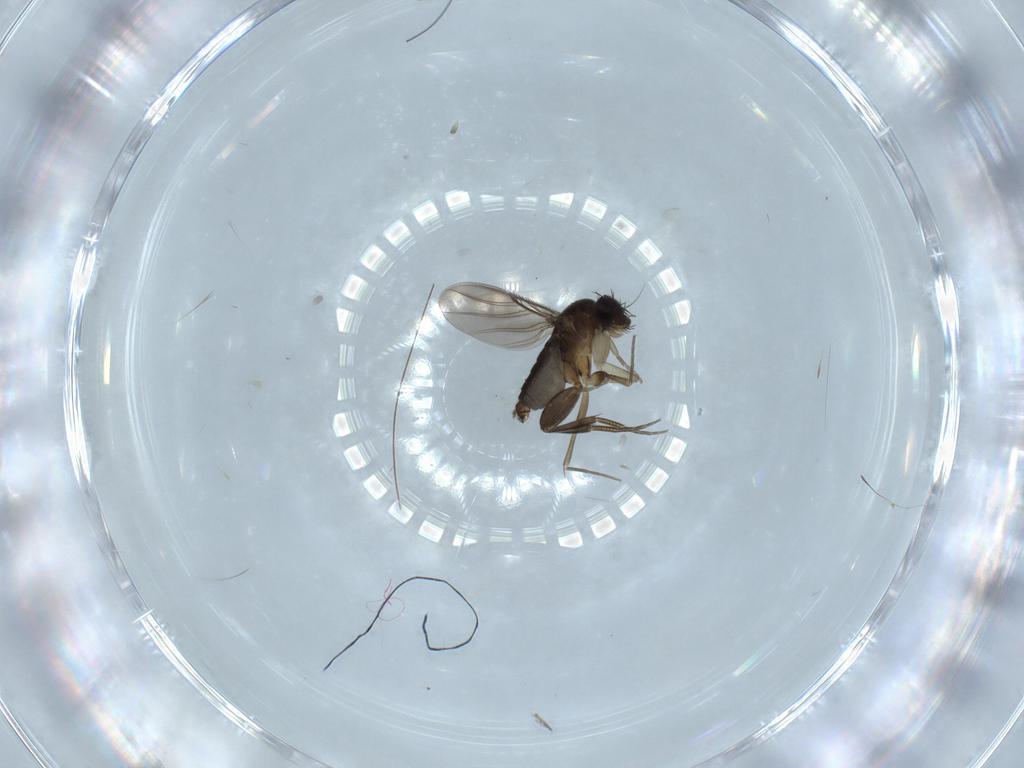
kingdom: Animalia
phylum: Arthropoda
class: Insecta
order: Diptera
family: Phoridae
